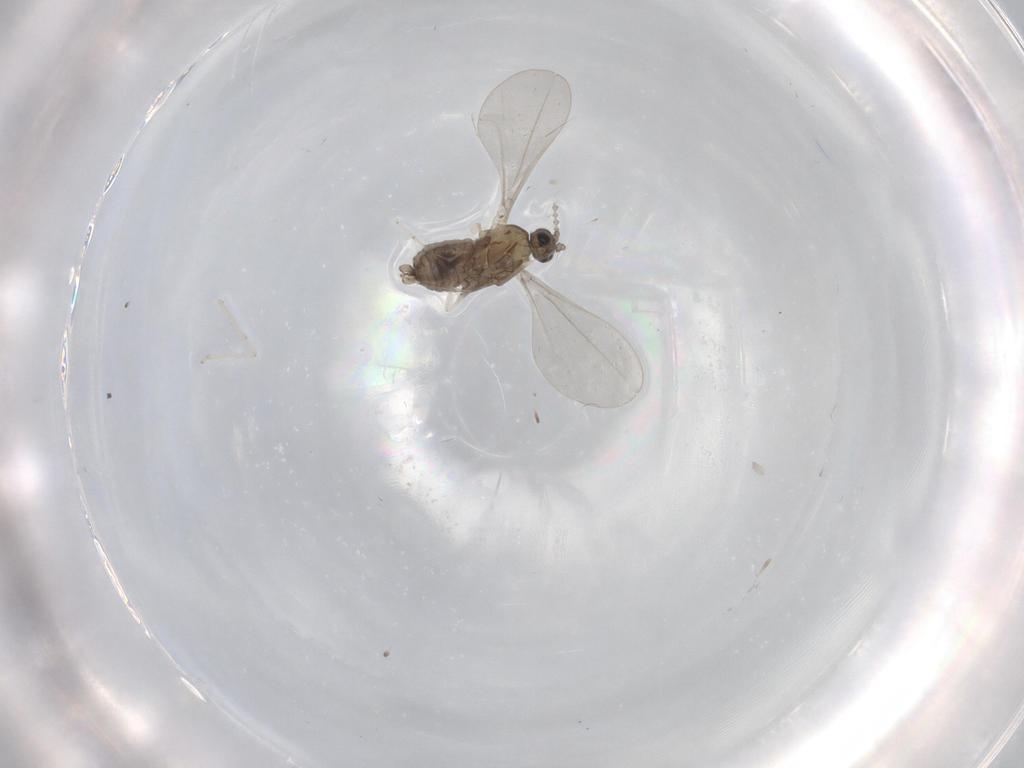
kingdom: Animalia
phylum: Arthropoda
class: Insecta
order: Diptera
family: Cecidomyiidae
